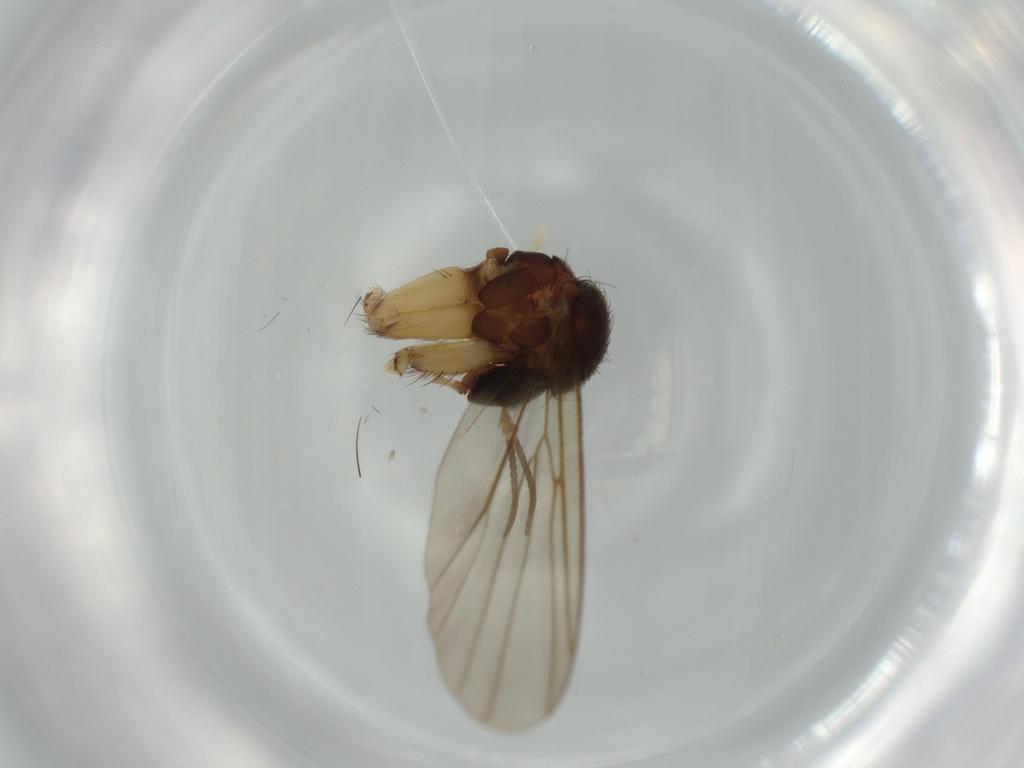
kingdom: Animalia
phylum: Arthropoda
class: Insecta
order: Diptera
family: Mycetophilidae
